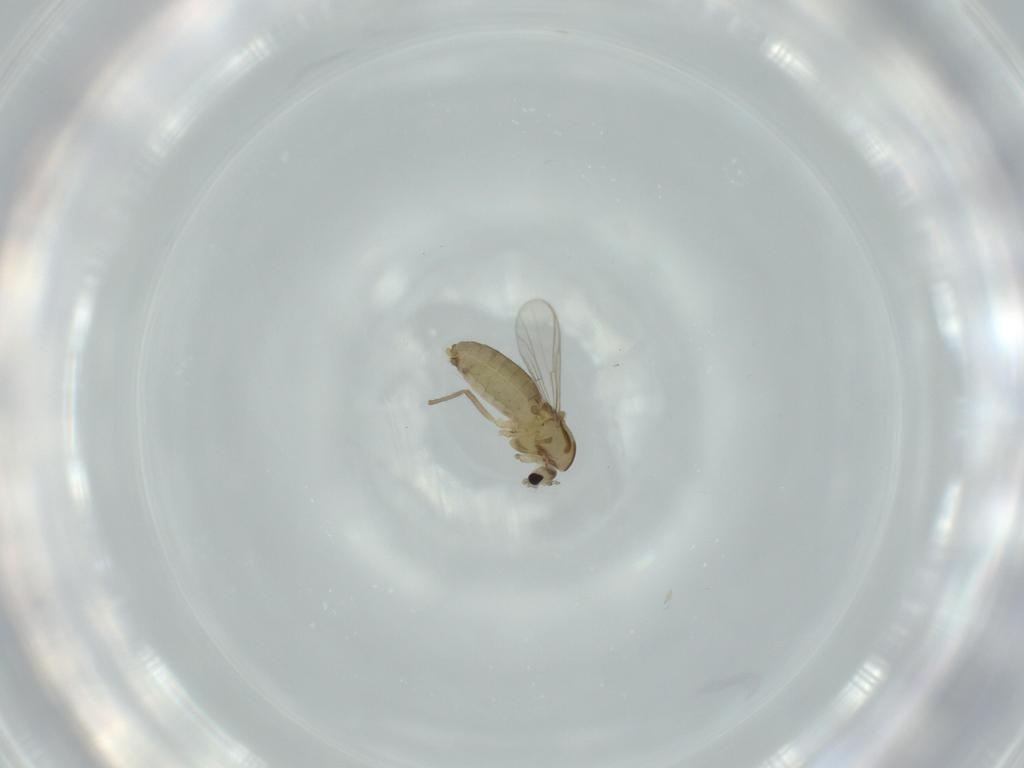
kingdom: Animalia
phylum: Arthropoda
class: Insecta
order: Diptera
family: Chironomidae
